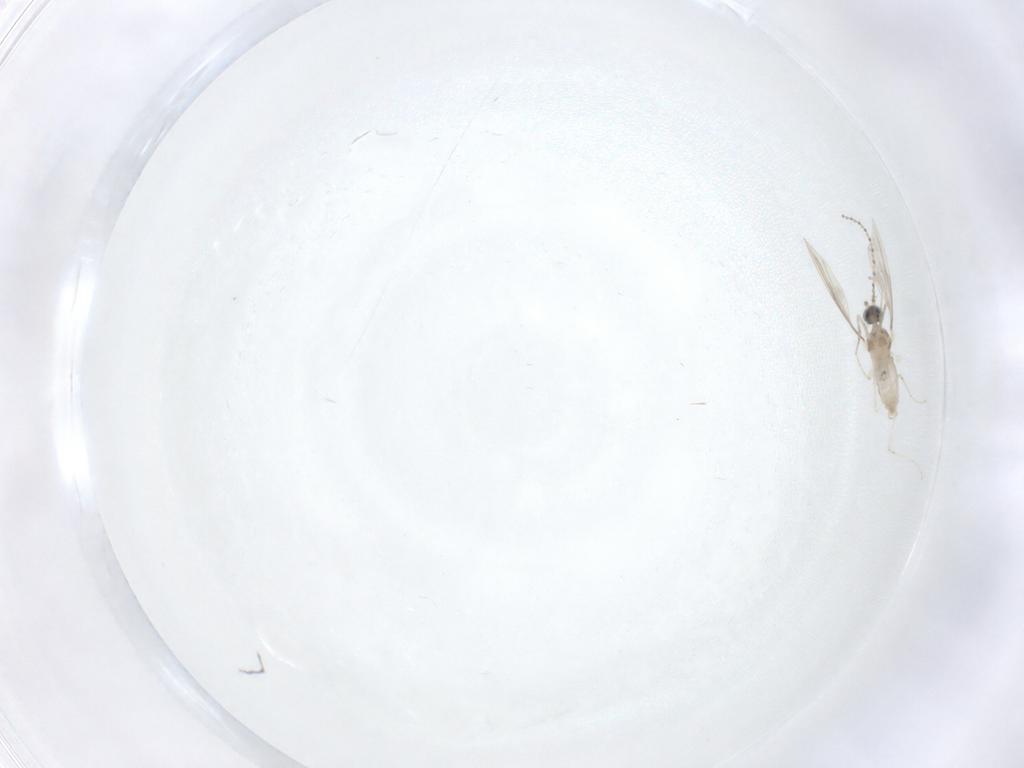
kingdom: Animalia
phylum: Arthropoda
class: Insecta
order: Diptera
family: Cecidomyiidae
